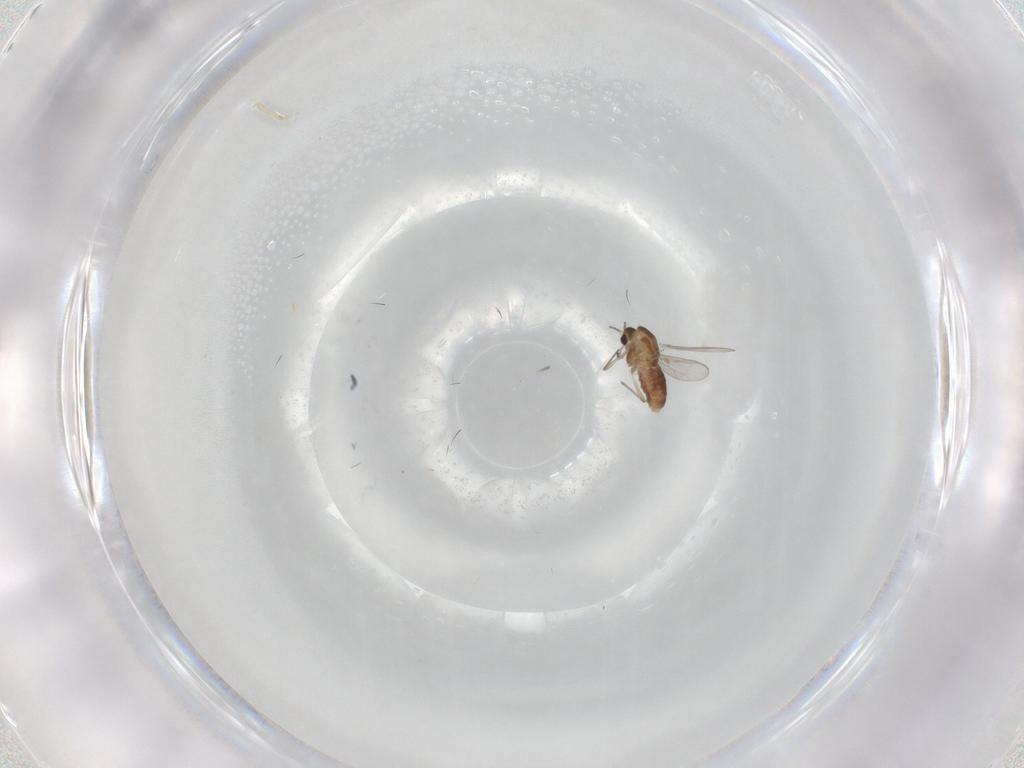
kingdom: Animalia
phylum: Arthropoda
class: Insecta
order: Diptera
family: Chironomidae
